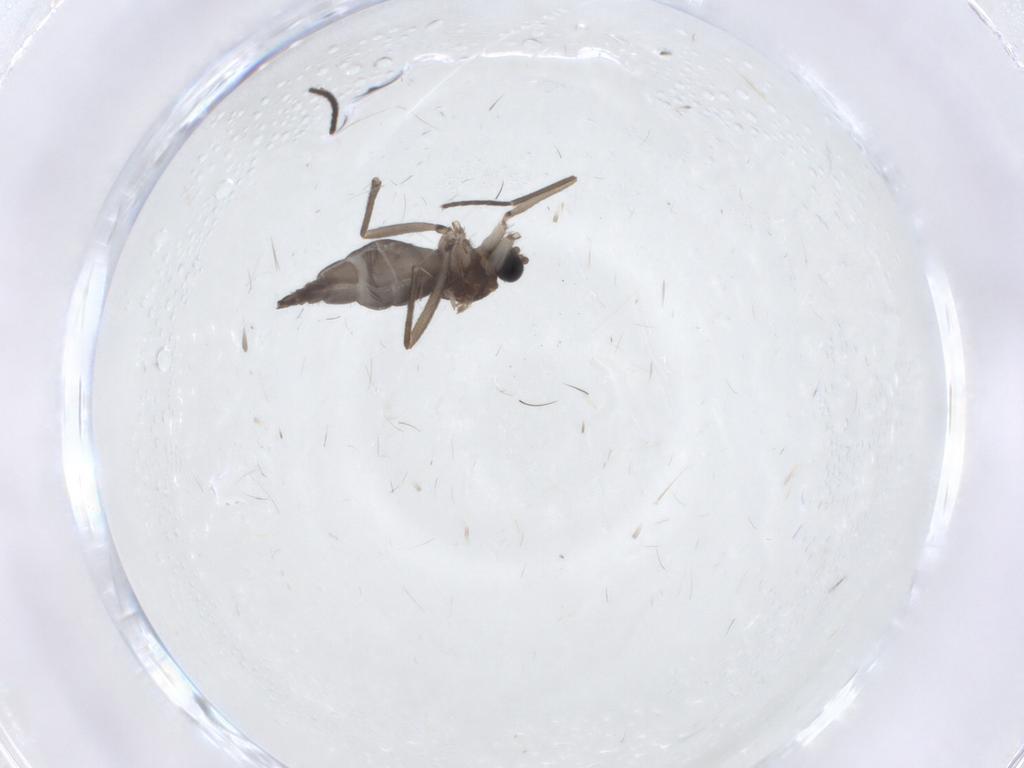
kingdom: Animalia
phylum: Arthropoda
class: Insecta
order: Diptera
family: Sciaridae
